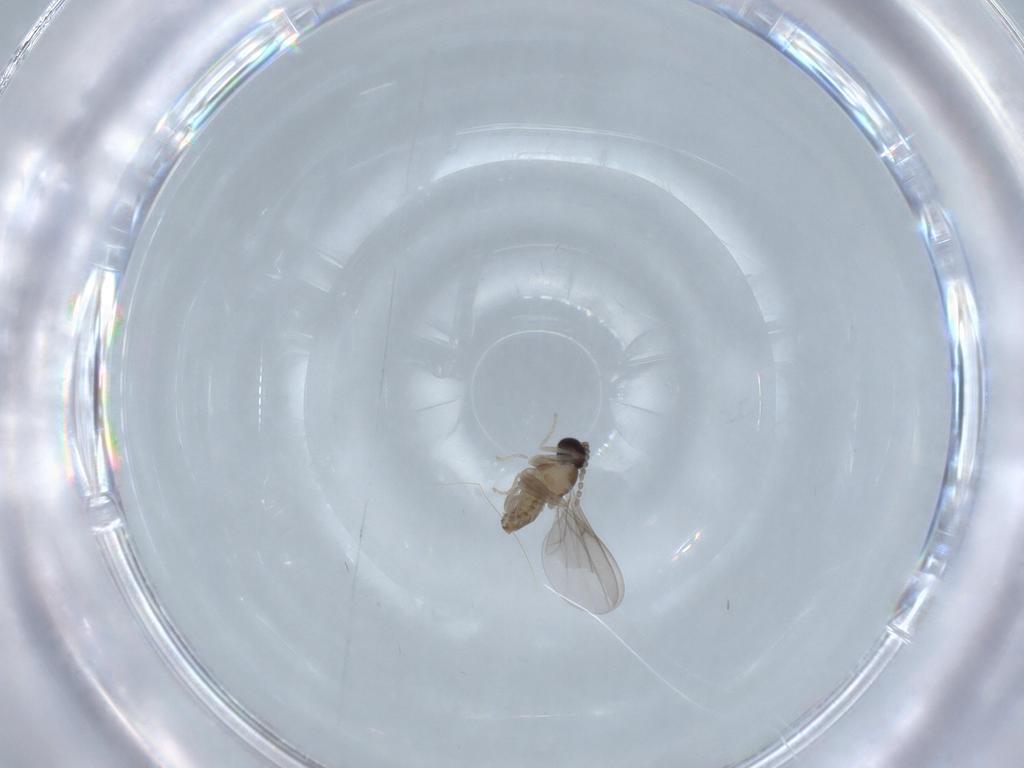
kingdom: Animalia
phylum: Arthropoda
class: Insecta
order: Diptera
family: Cecidomyiidae
